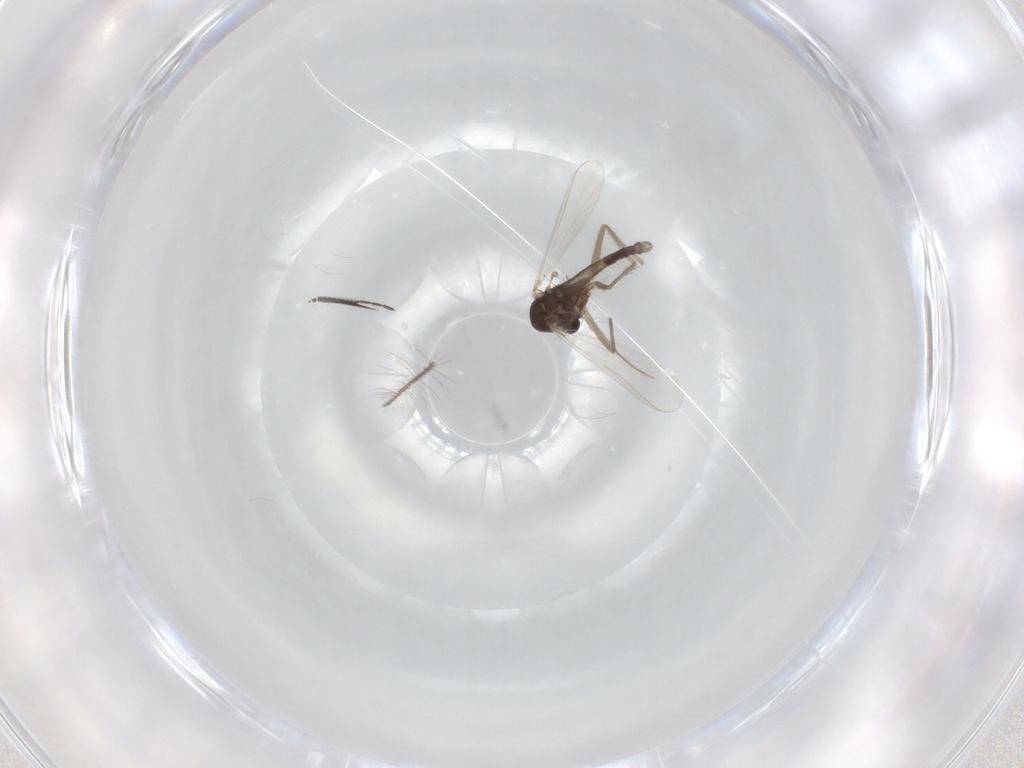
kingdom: Animalia
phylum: Arthropoda
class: Insecta
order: Diptera
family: Chironomidae
